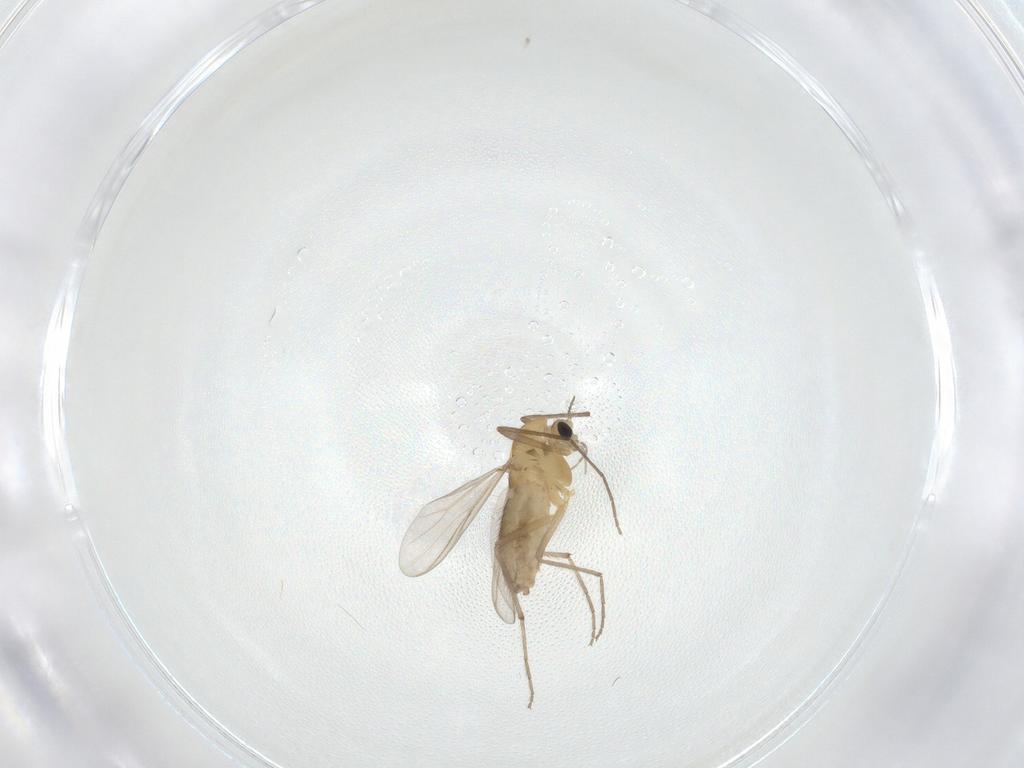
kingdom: Animalia
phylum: Arthropoda
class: Insecta
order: Diptera
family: Chironomidae
